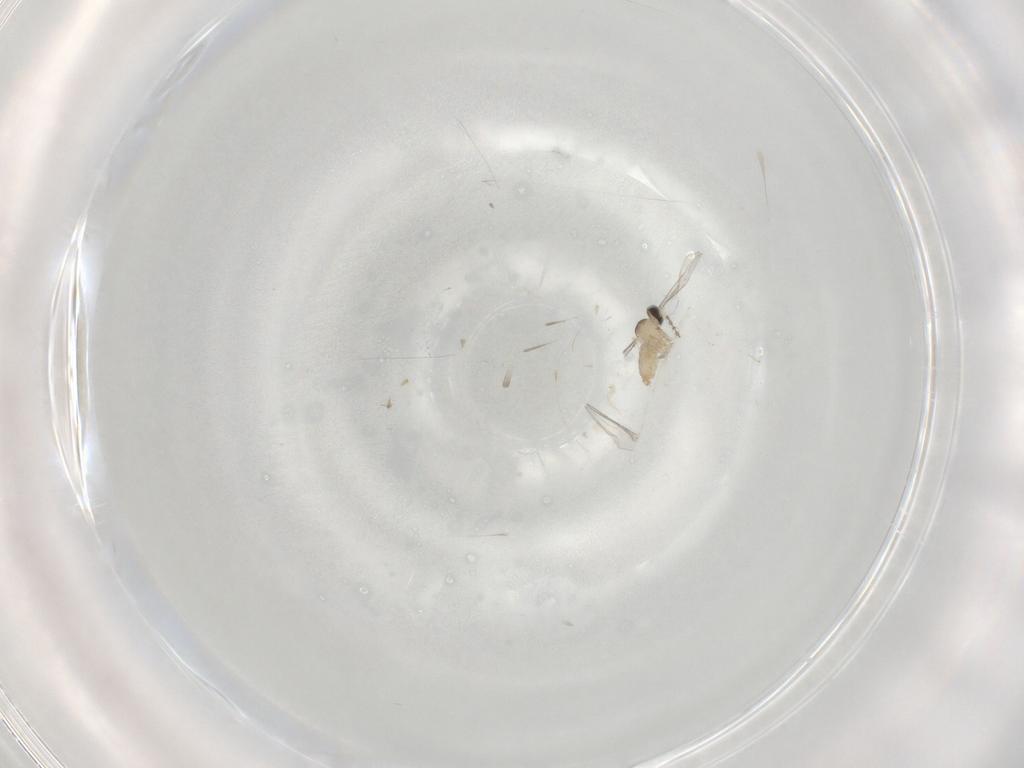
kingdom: Animalia
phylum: Arthropoda
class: Insecta
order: Diptera
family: Cecidomyiidae
